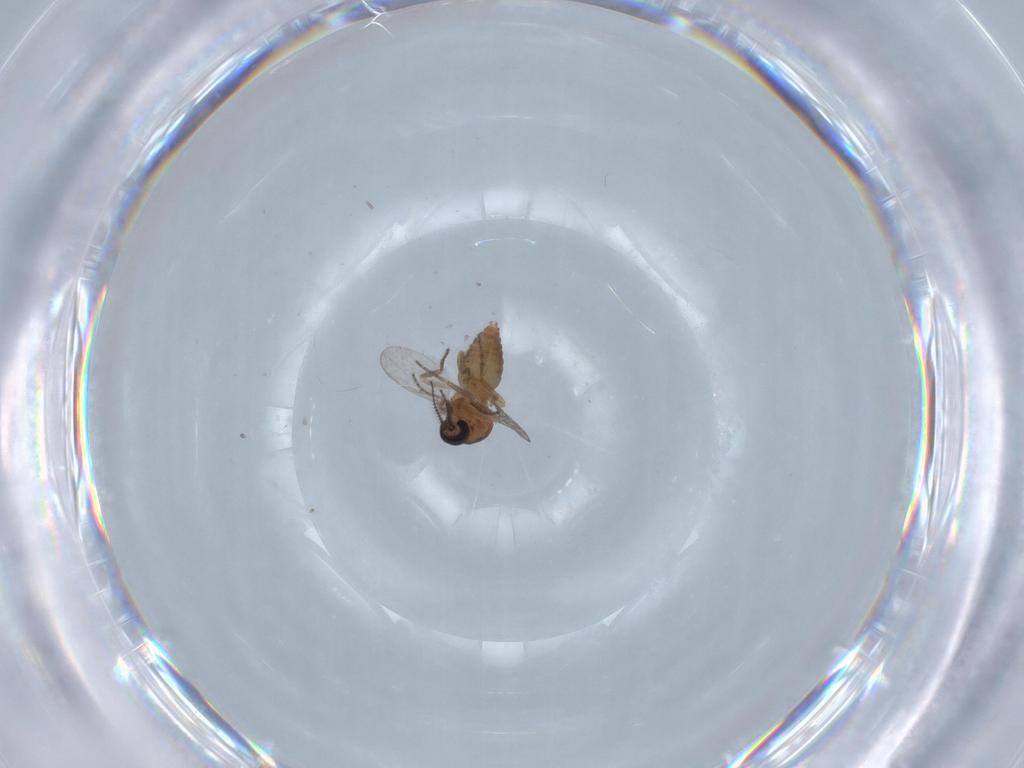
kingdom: Animalia
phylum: Arthropoda
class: Insecta
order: Diptera
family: Ceratopogonidae
